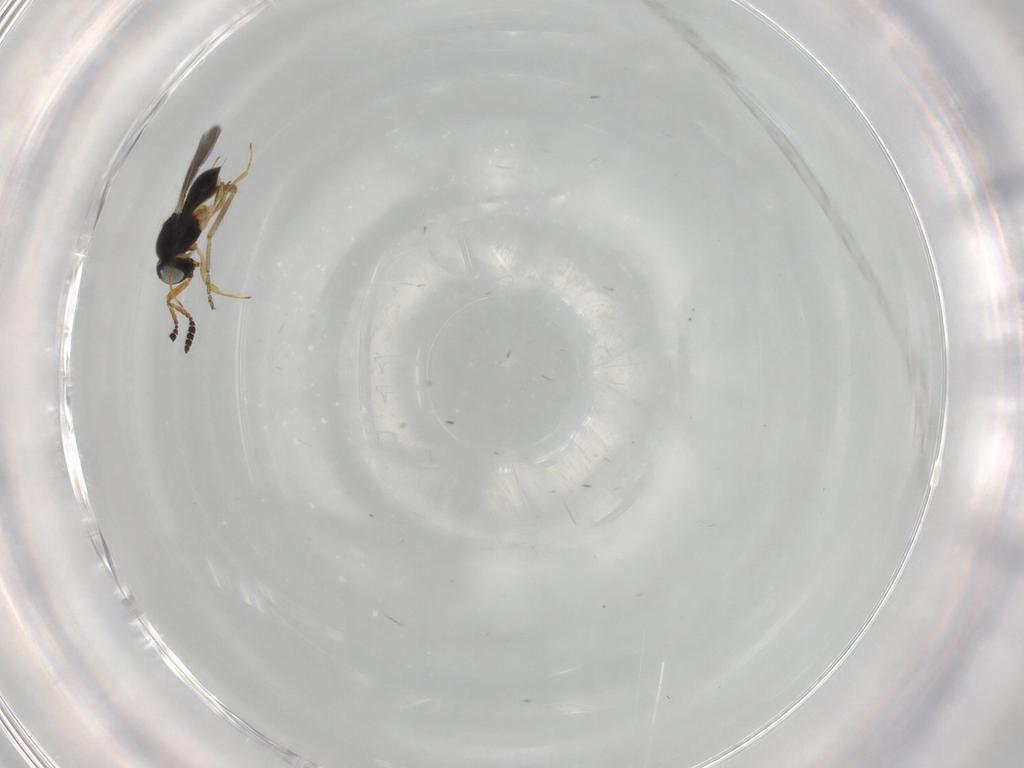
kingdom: Animalia
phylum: Arthropoda
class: Insecta
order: Hymenoptera
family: Scelionidae
